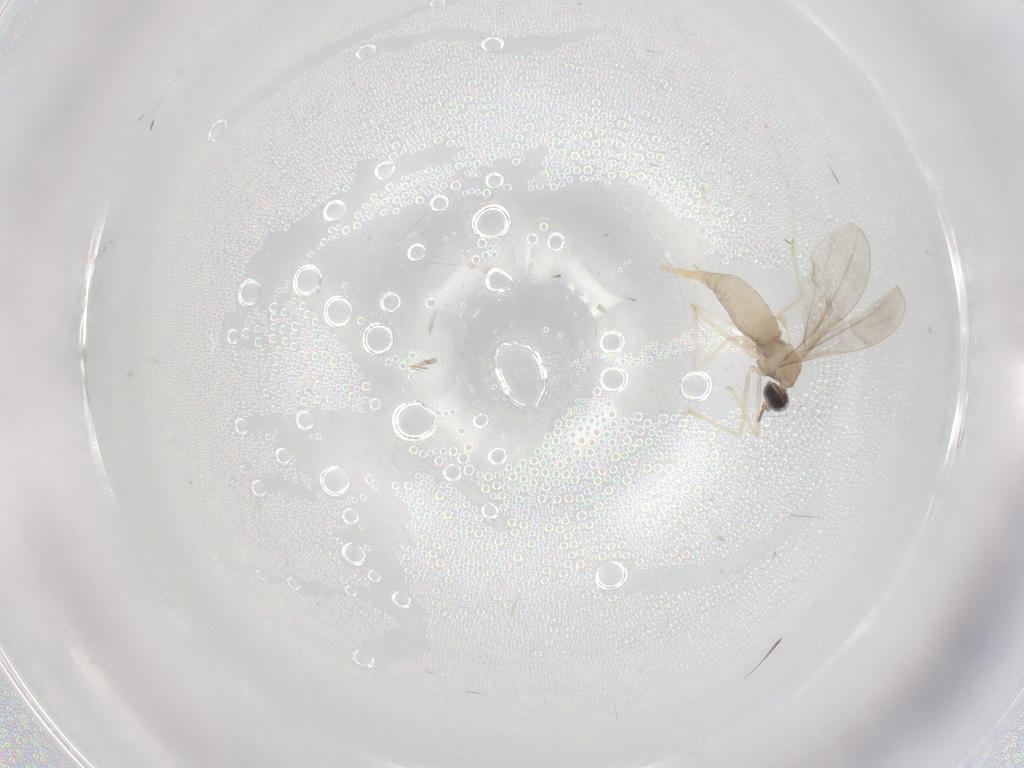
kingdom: Animalia
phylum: Arthropoda
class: Insecta
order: Diptera
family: Cecidomyiidae
